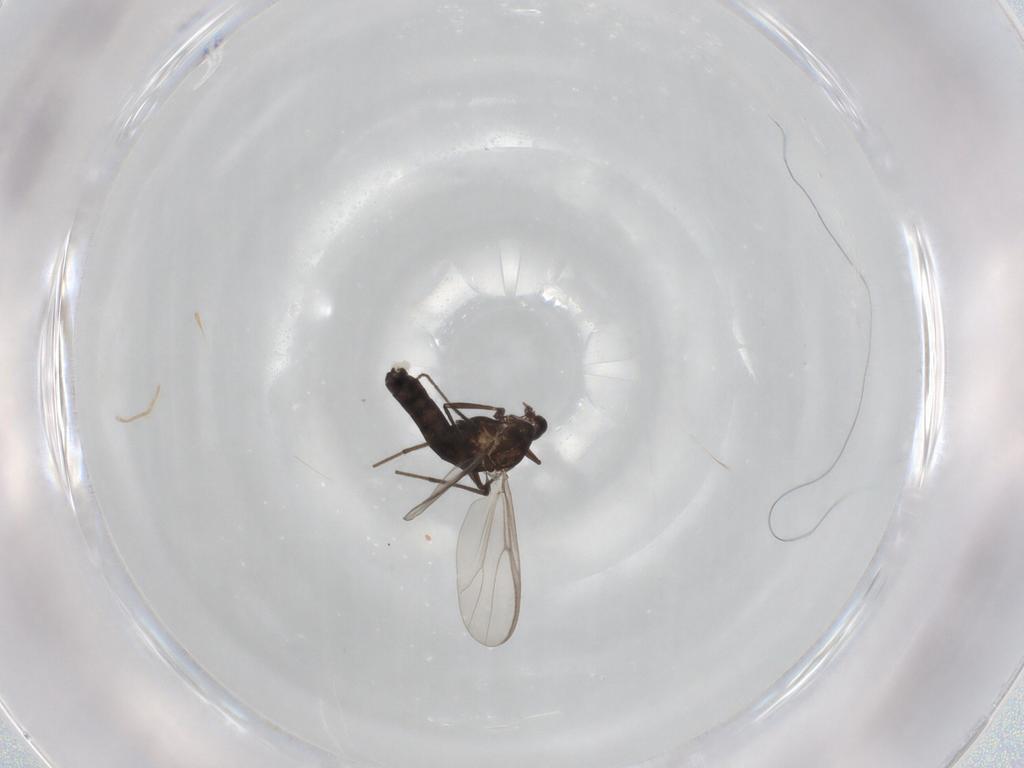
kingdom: Animalia
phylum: Arthropoda
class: Insecta
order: Diptera
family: Chironomidae
